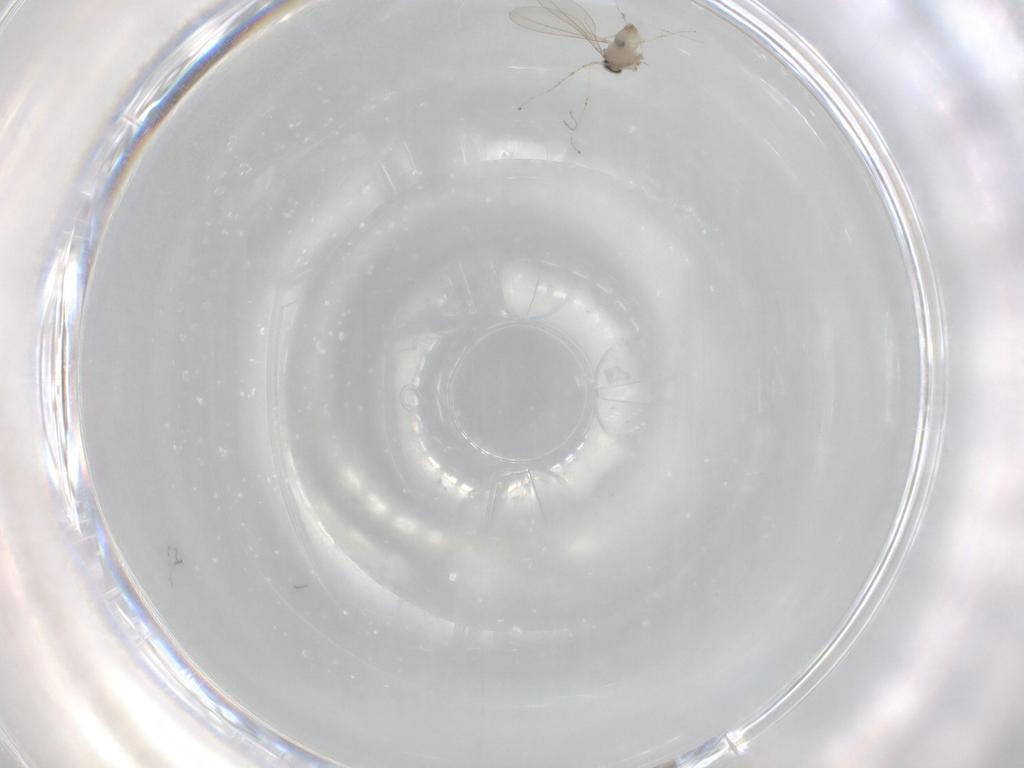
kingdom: Animalia
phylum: Arthropoda
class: Insecta
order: Diptera
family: Cecidomyiidae
